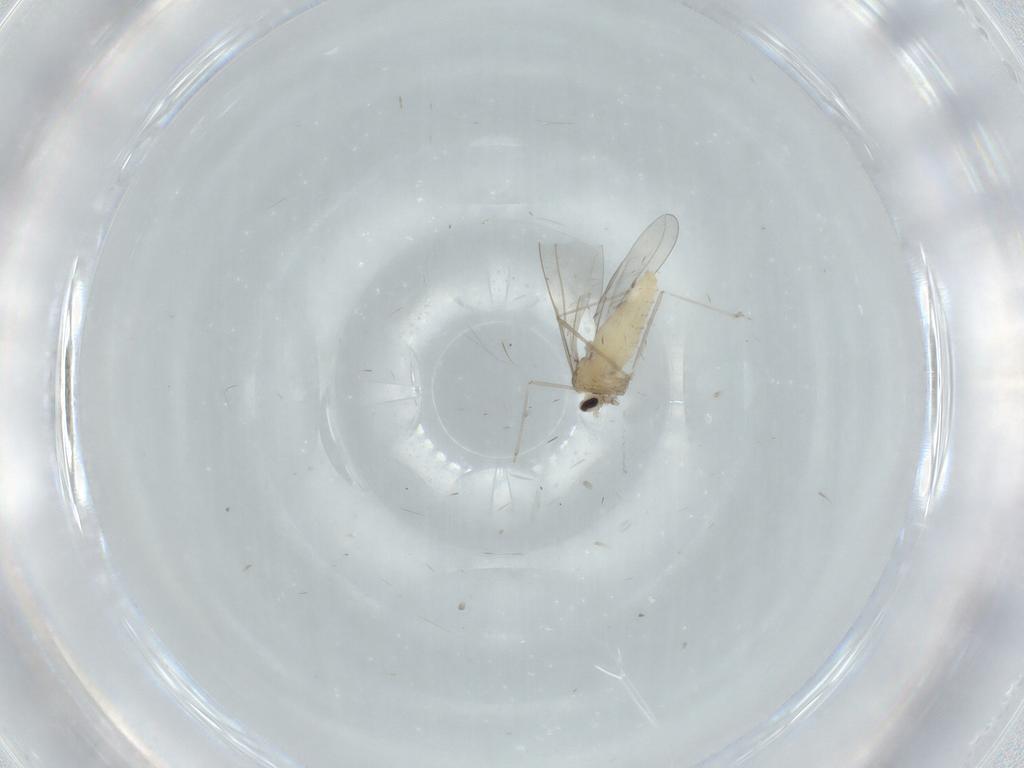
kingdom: Animalia
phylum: Arthropoda
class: Insecta
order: Diptera
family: Cecidomyiidae
